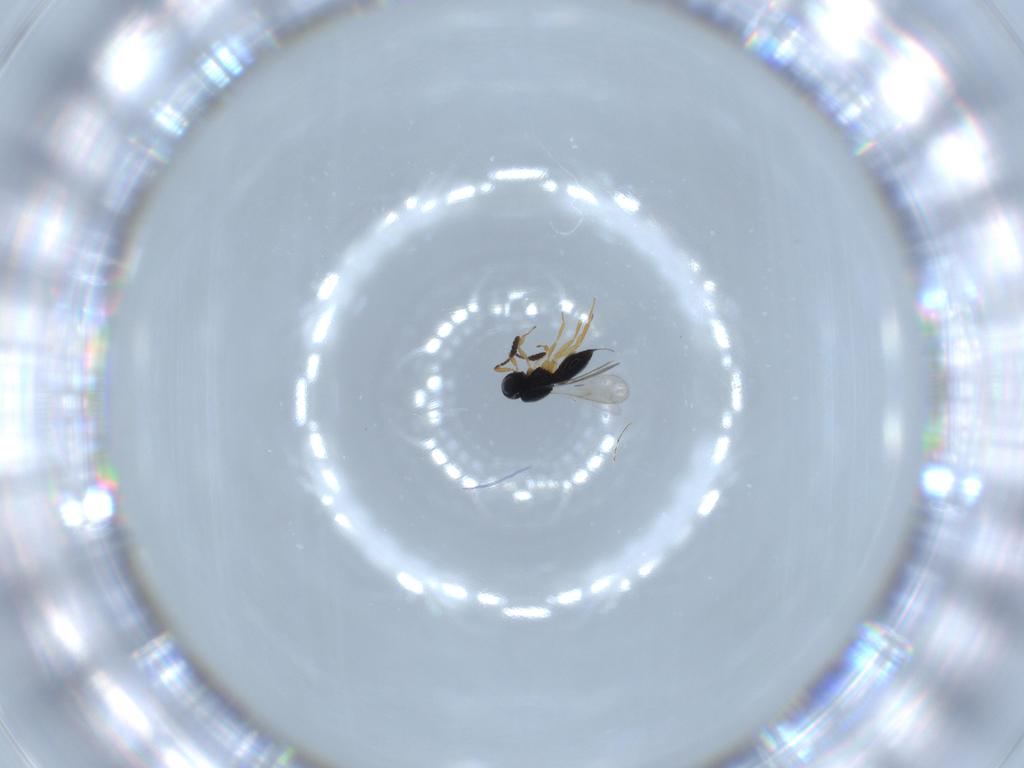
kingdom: Animalia
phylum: Arthropoda
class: Insecta
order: Hymenoptera
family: Scelionidae
